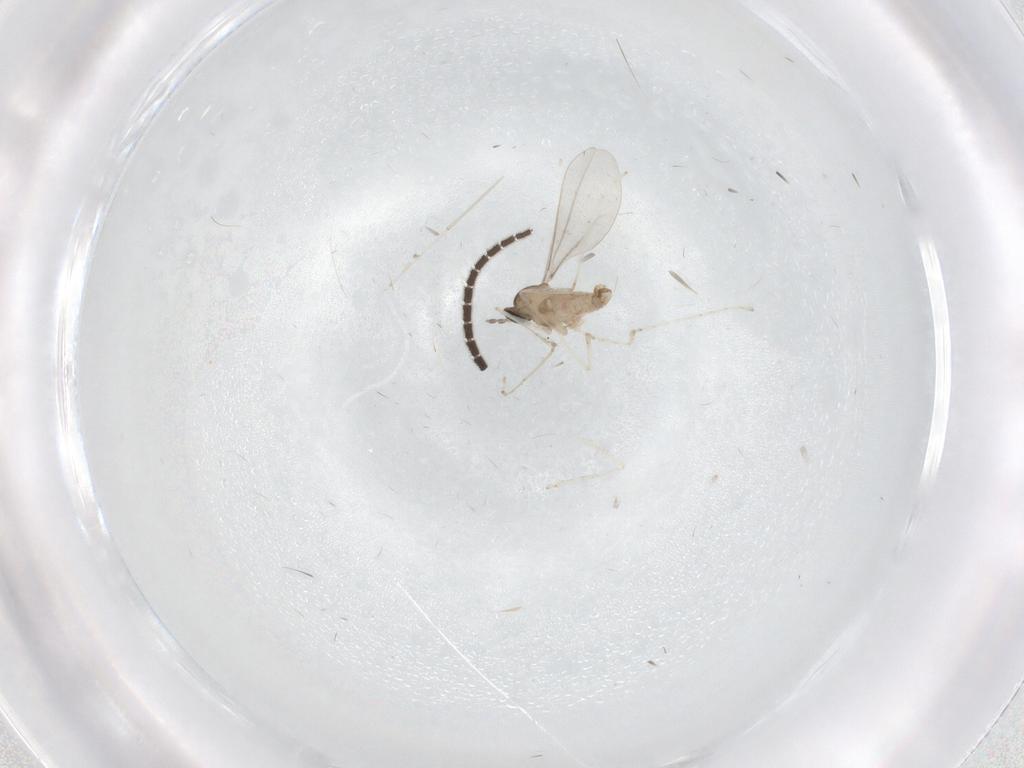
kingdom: Animalia
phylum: Arthropoda
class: Insecta
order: Diptera
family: Cecidomyiidae
